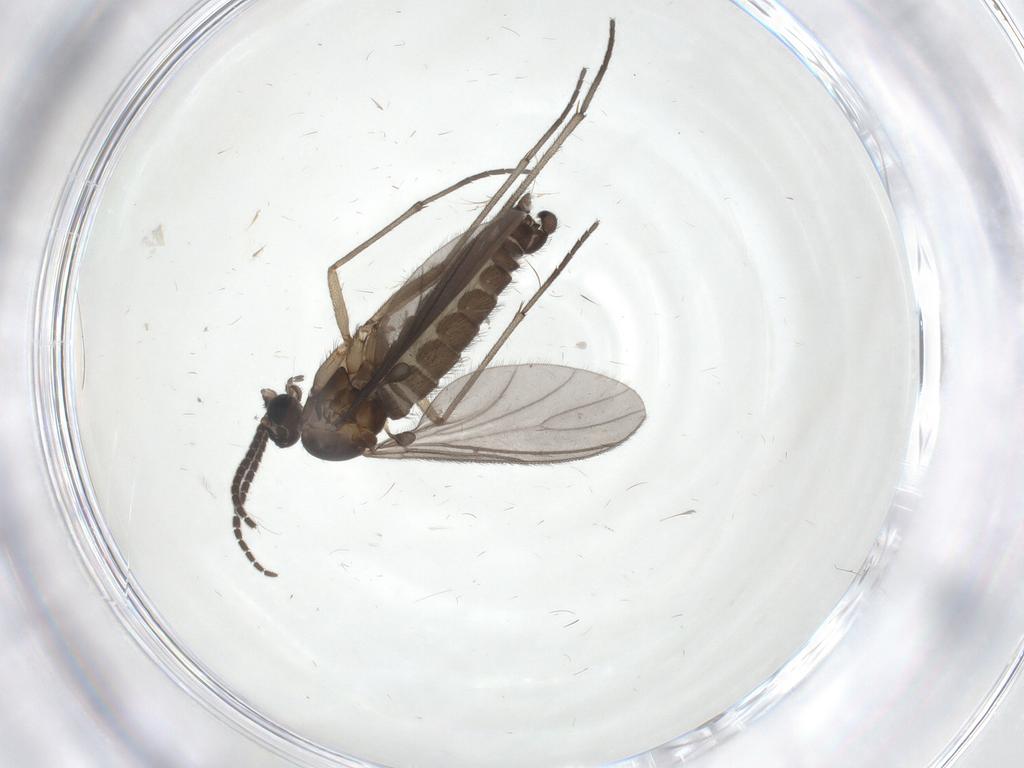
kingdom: Animalia
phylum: Arthropoda
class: Insecta
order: Diptera
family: Sciaridae
